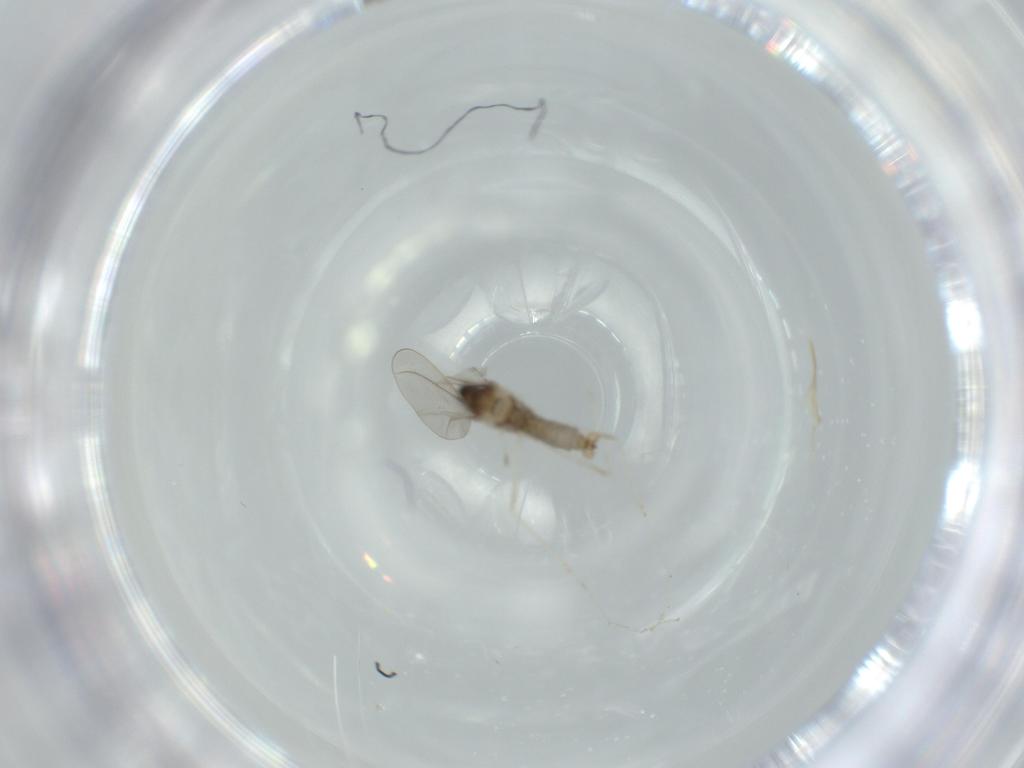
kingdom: Animalia
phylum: Arthropoda
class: Insecta
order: Diptera
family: Cecidomyiidae
